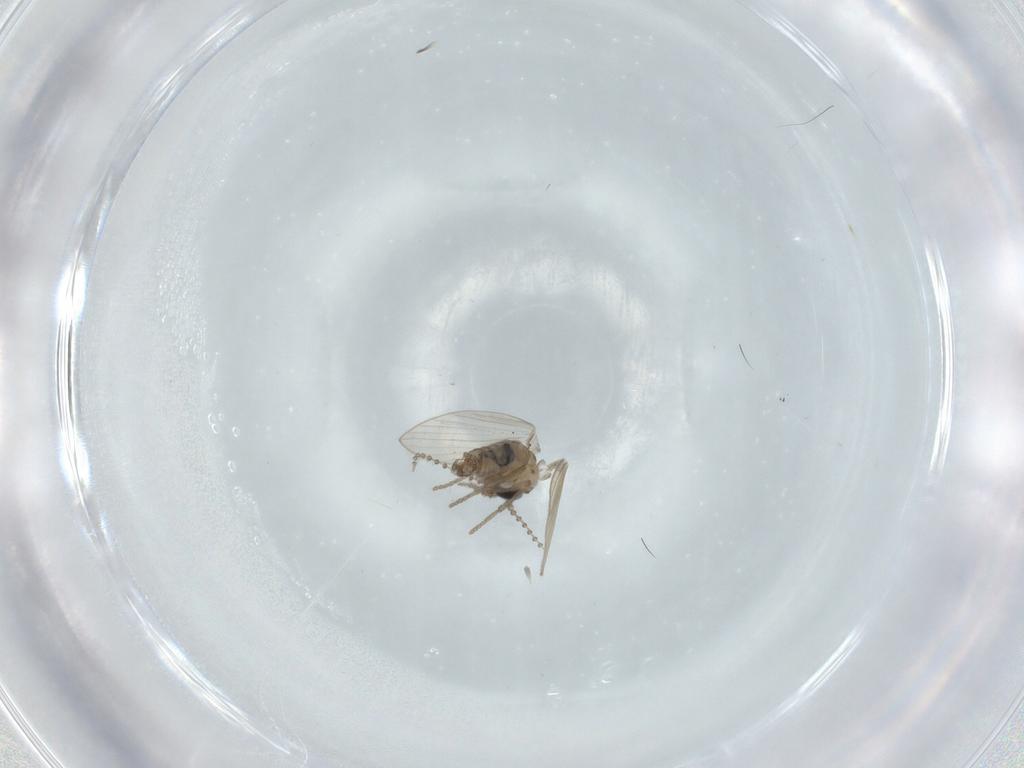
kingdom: Animalia
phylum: Arthropoda
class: Insecta
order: Diptera
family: Psychodidae
